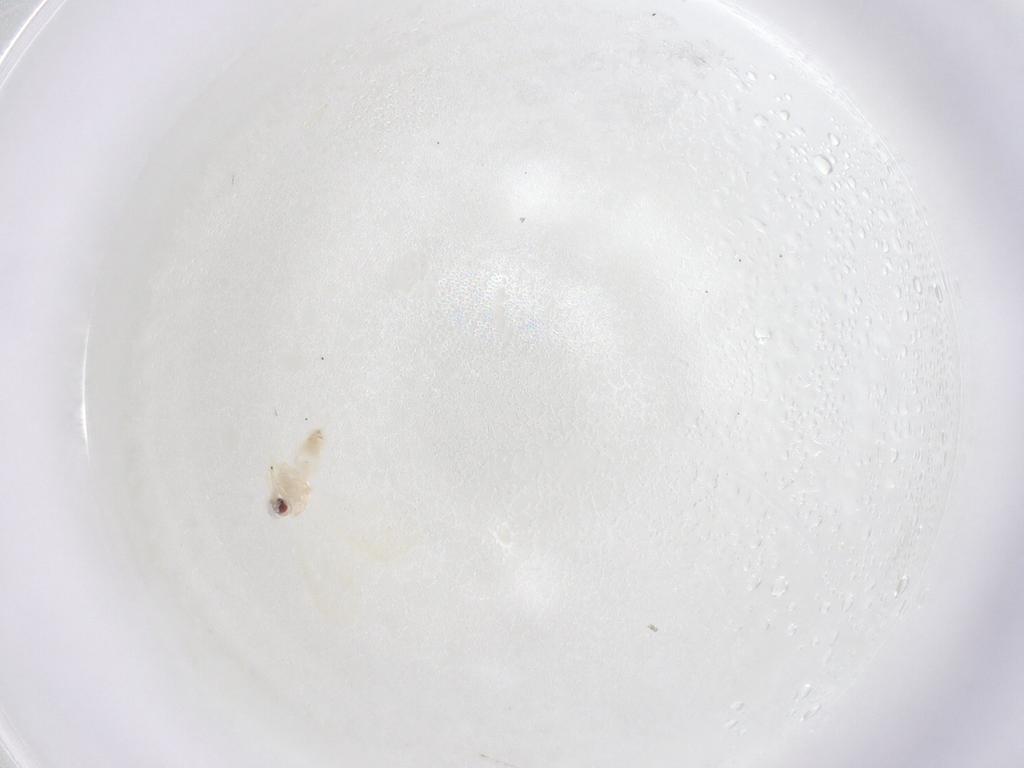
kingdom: Animalia
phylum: Arthropoda
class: Insecta
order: Hemiptera
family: Aleyrodidae
